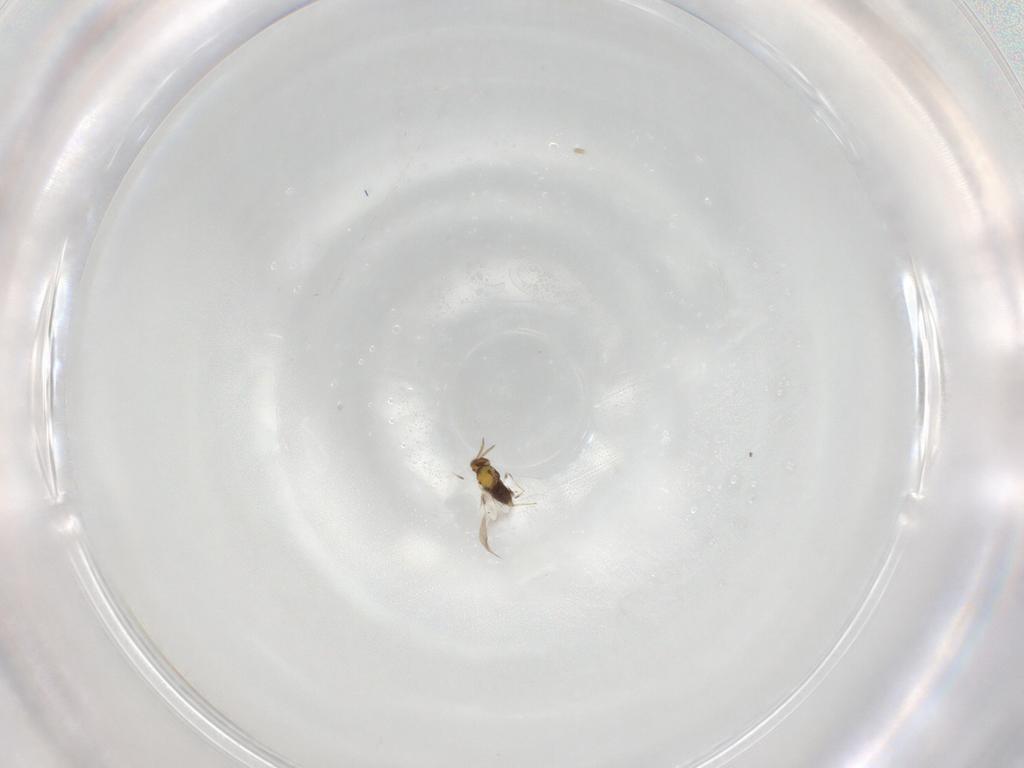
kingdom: Animalia
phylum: Arthropoda
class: Insecta
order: Hymenoptera
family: Aphelinidae
